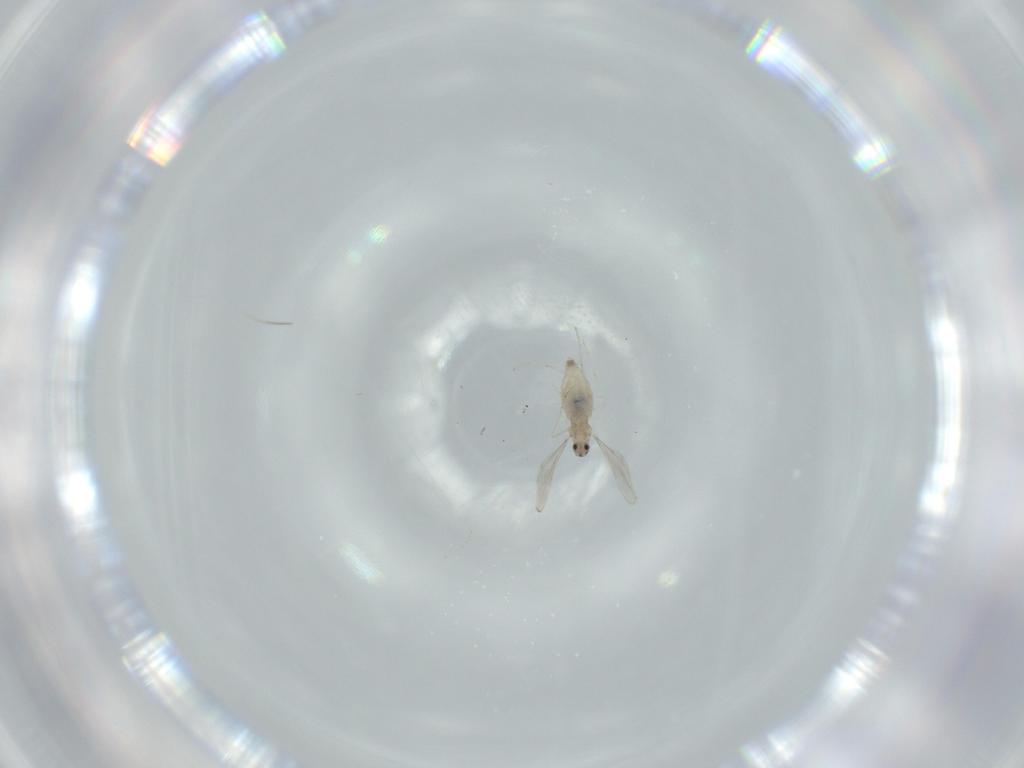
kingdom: Animalia
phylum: Arthropoda
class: Insecta
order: Diptera
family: Cecidomyiidae
